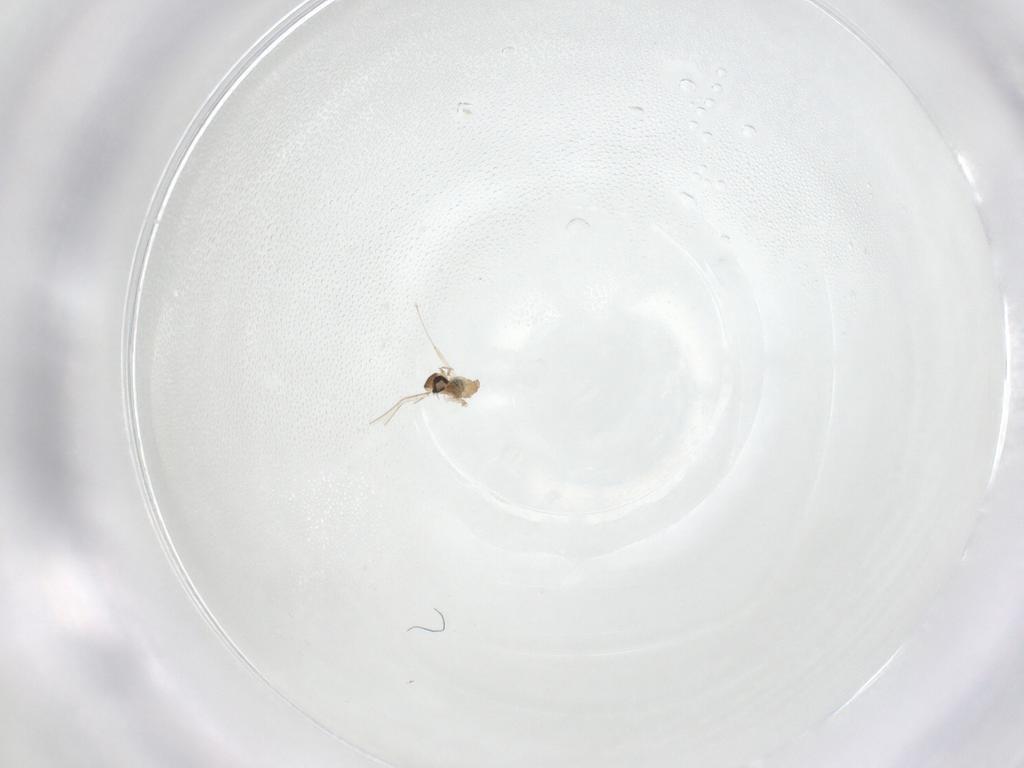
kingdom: Animalia
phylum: Arthropoda
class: Insecta
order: Diptera
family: Cecidomyiidae
